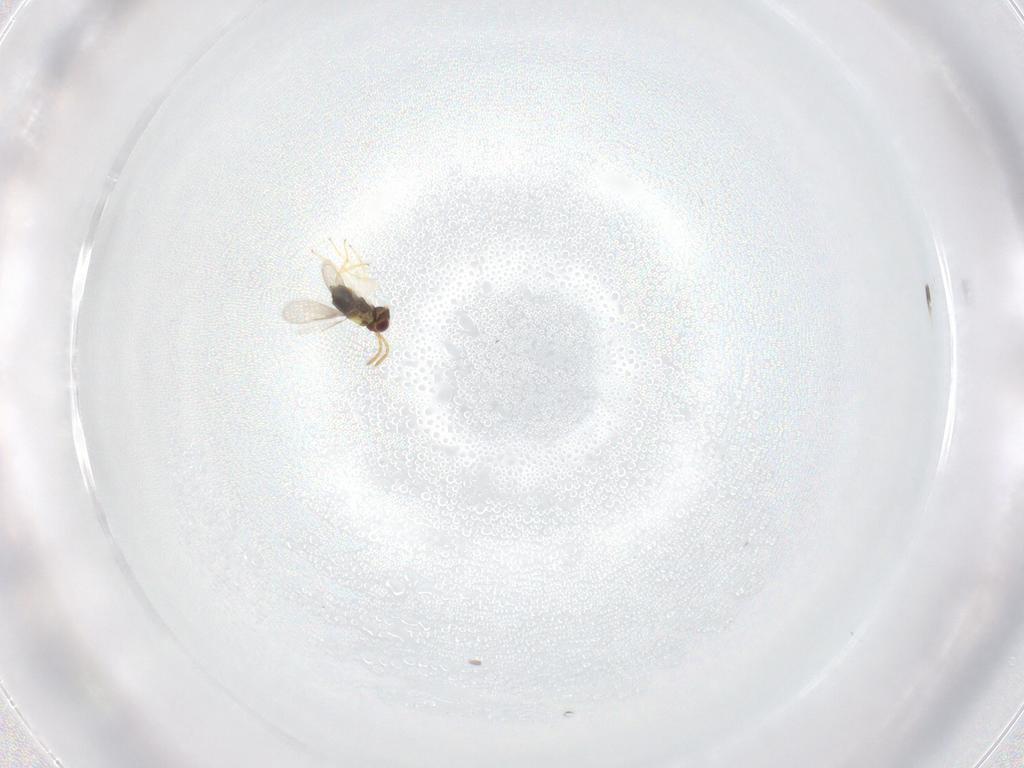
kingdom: Animalia
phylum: Arthropoda
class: Insecta
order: Hymenoptera
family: Aphelinidae
